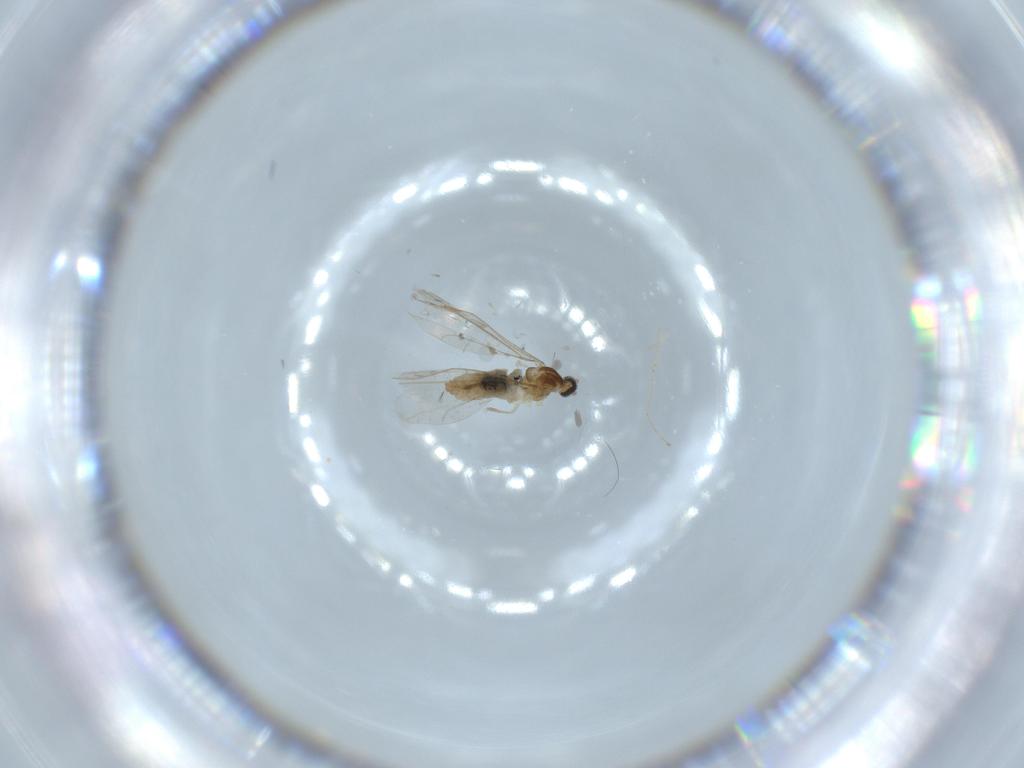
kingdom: Animalia
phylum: Arthropoda
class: Insecta
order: Diptera
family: Cecidomyiidae
